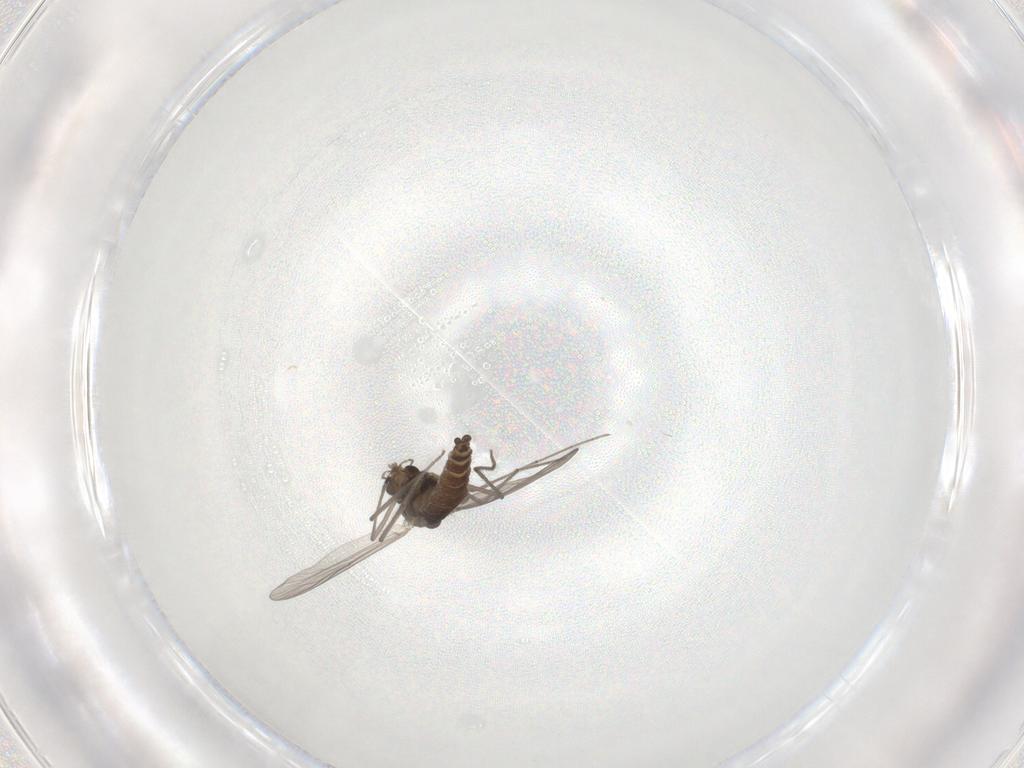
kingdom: Animalia
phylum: Arthropoda
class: Insecta
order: Diptera
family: Chironomidae
